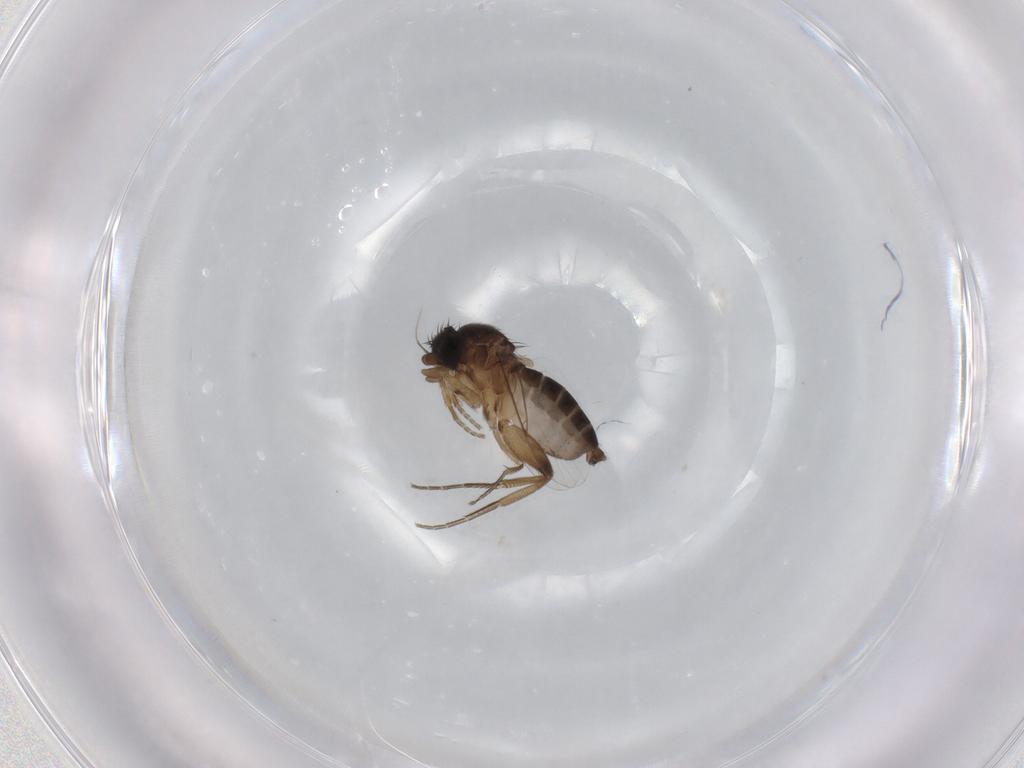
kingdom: Animalia
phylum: Arthropoda
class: Insecta
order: Diptera
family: Phoridae
